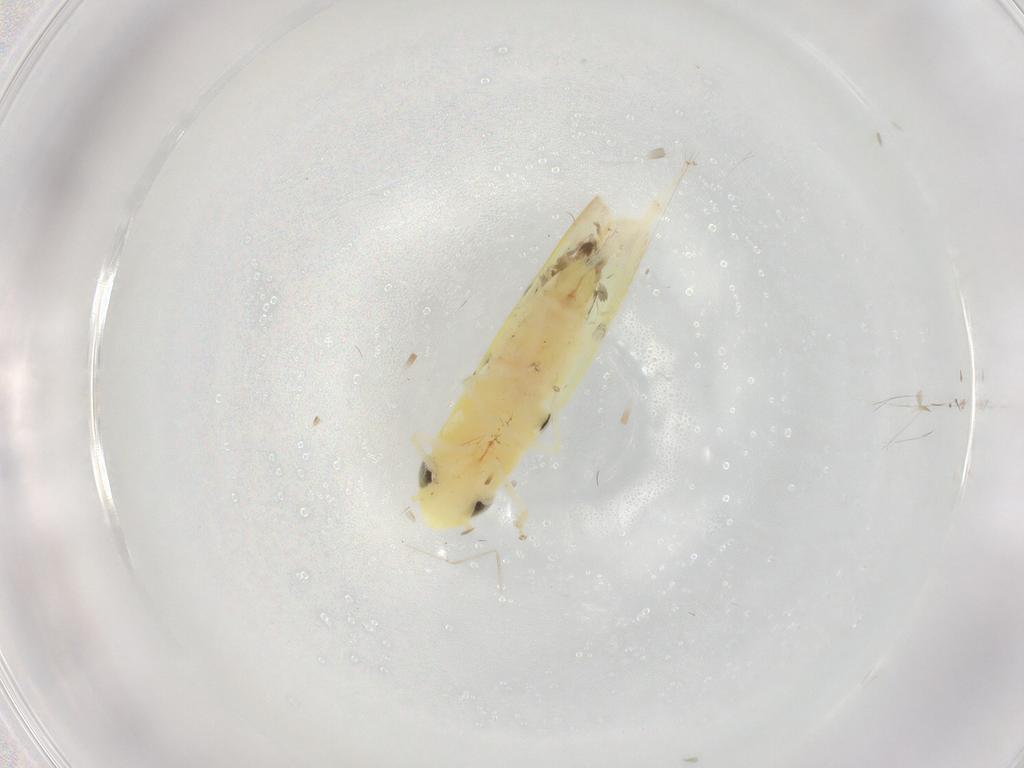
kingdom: Animalia
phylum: Arthropoda
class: Insecta
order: Hemiptera
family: Cicadellidae
